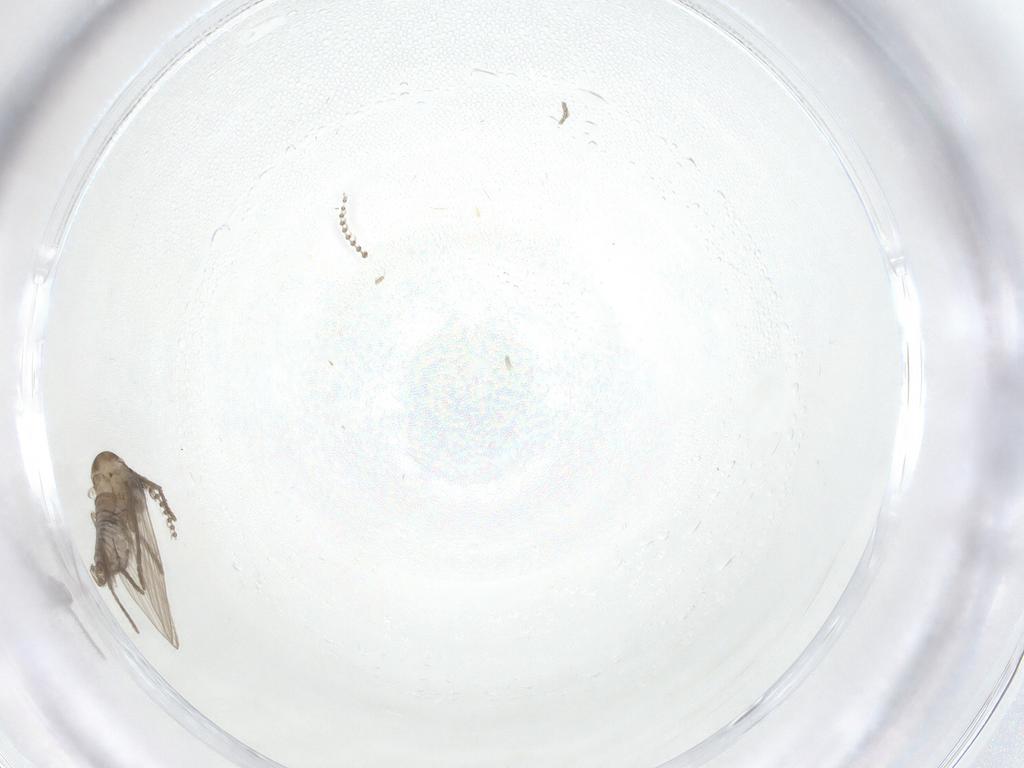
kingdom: Animalia
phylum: Arthropoda
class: Insecta
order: Diptera
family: Psychodidae
